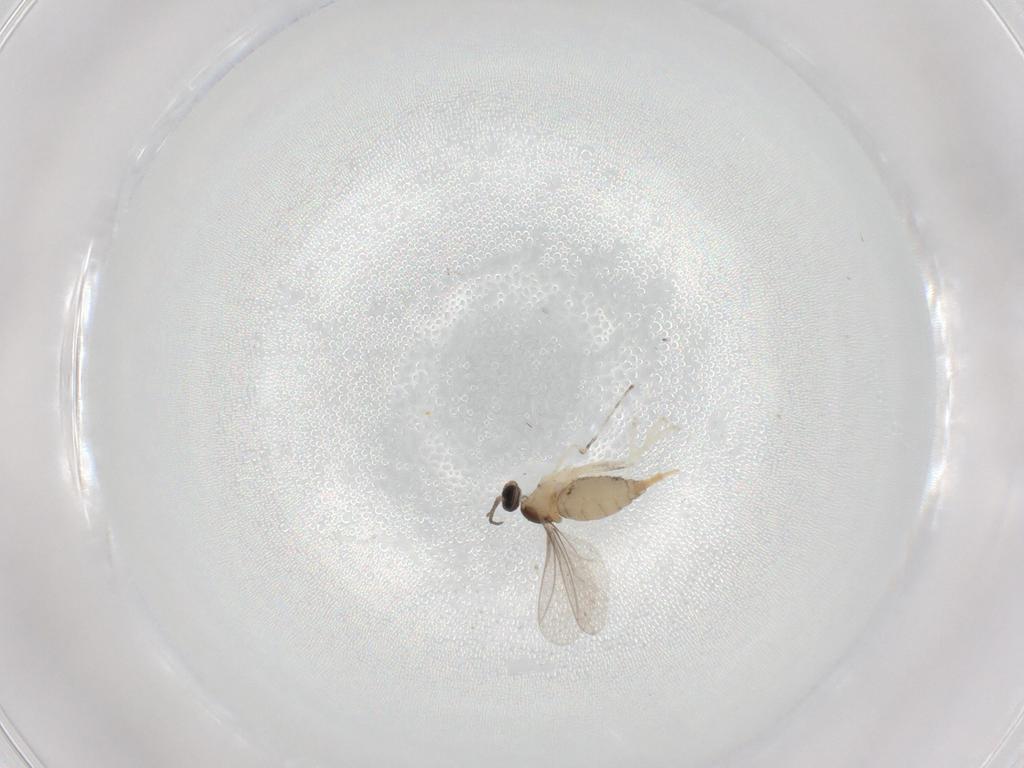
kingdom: Animalia
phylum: Arthropoda
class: Insecta
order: Diptera
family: Cecidomyiidae
